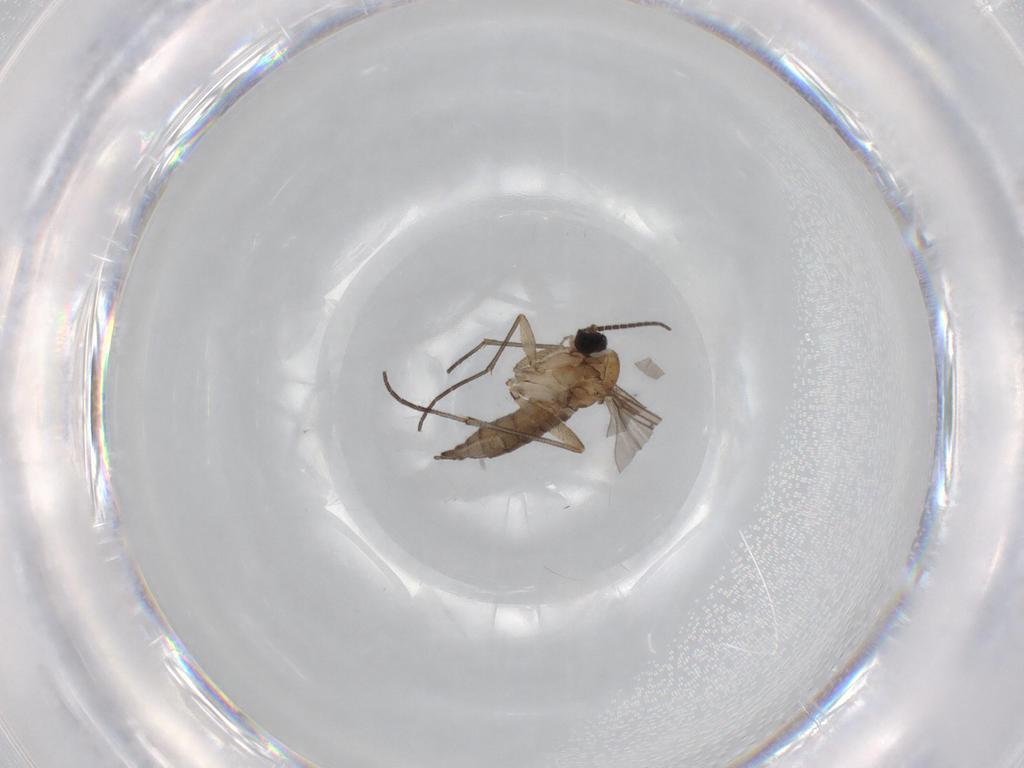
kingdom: Animalia
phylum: Arthropoda
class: Insecta
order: Diptera
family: Sciaridae
